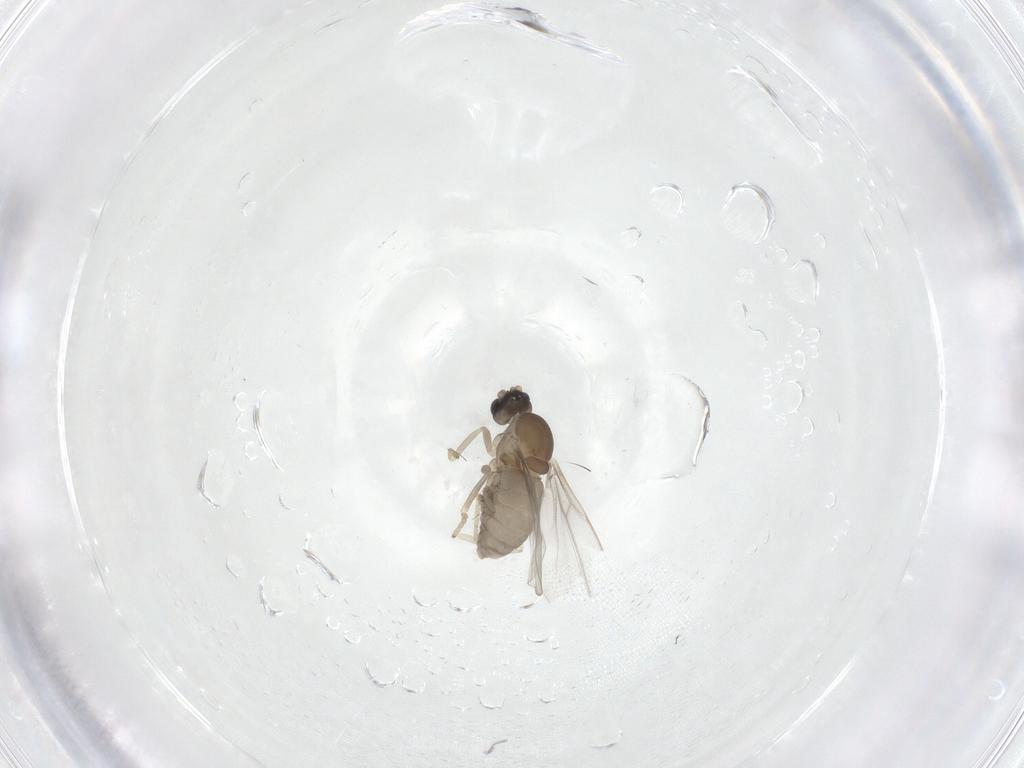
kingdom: Animalia
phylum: Arthropoda
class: Insecta
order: Diptera
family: Cecidomyiidae
